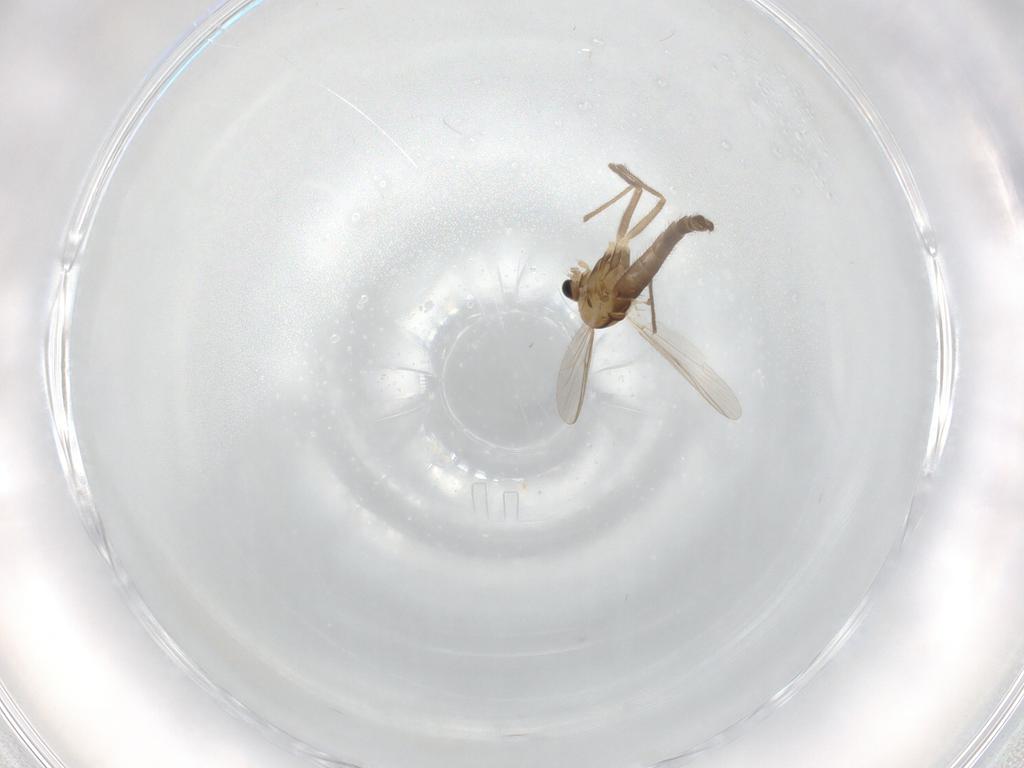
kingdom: Animalia
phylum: Arthropoda
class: Insecta
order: Diptera
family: Chironomidae
